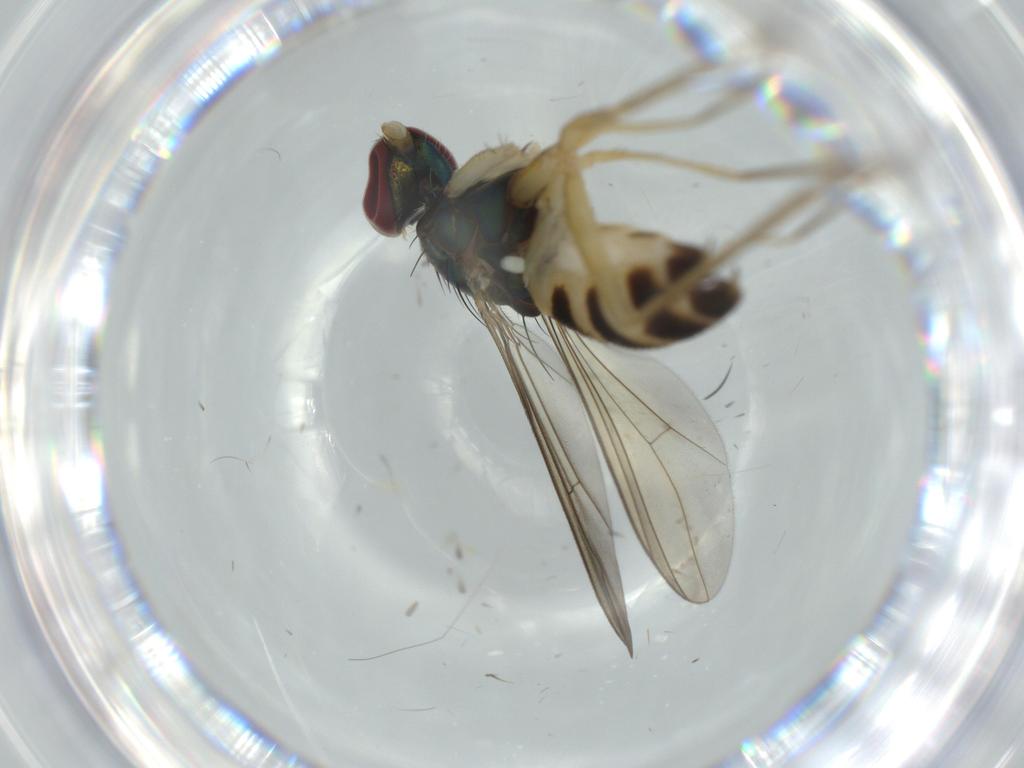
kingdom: Animalia
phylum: Arthropoda
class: Insecta
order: Diptera
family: Dolichopodidae
